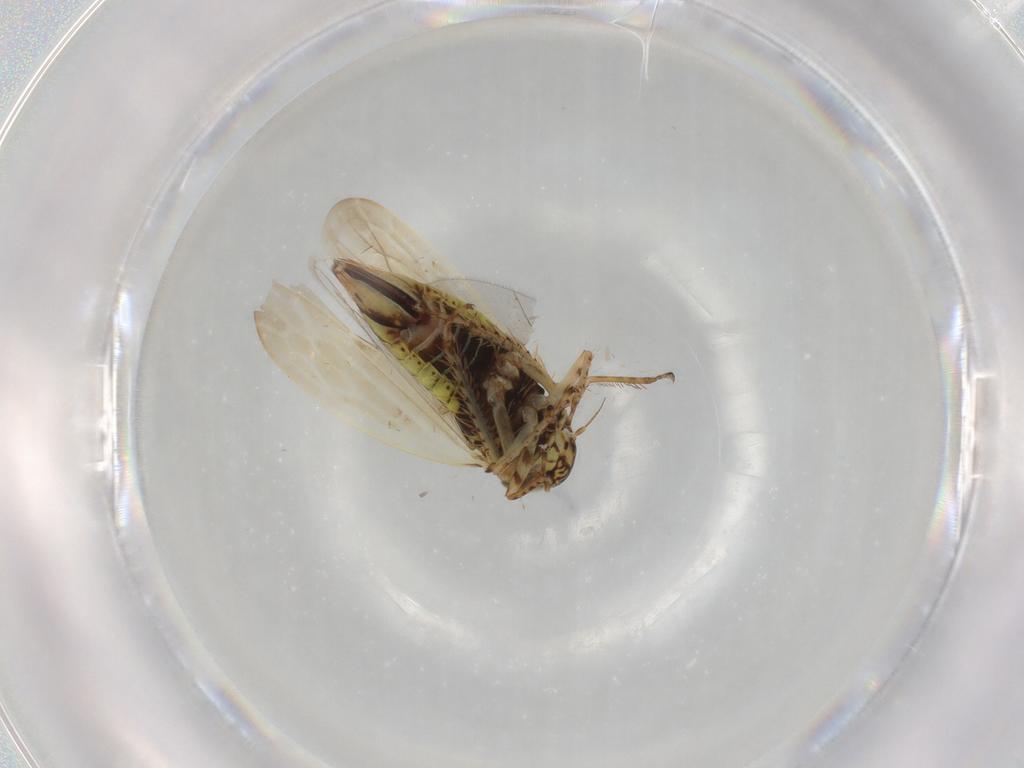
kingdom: Animalia
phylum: Arthropoda
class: Insecta
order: Hemiptera
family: Cicadellidae
